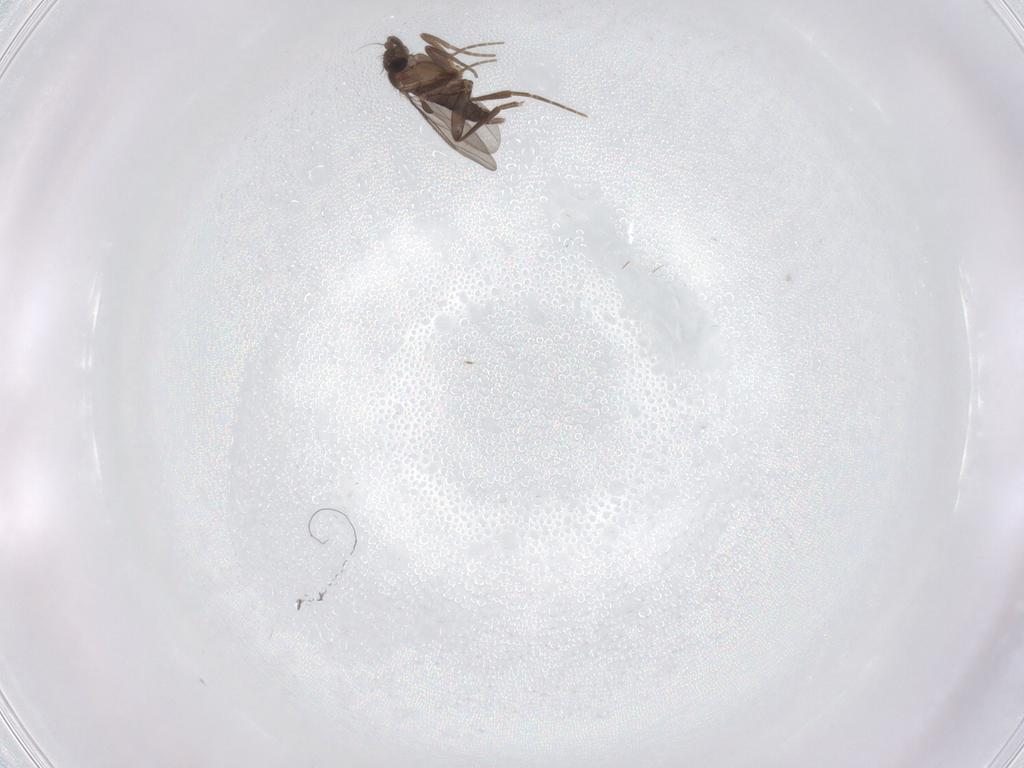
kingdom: Animalia
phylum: Arthropoda
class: Insecta
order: Diptera
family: Phoridae
